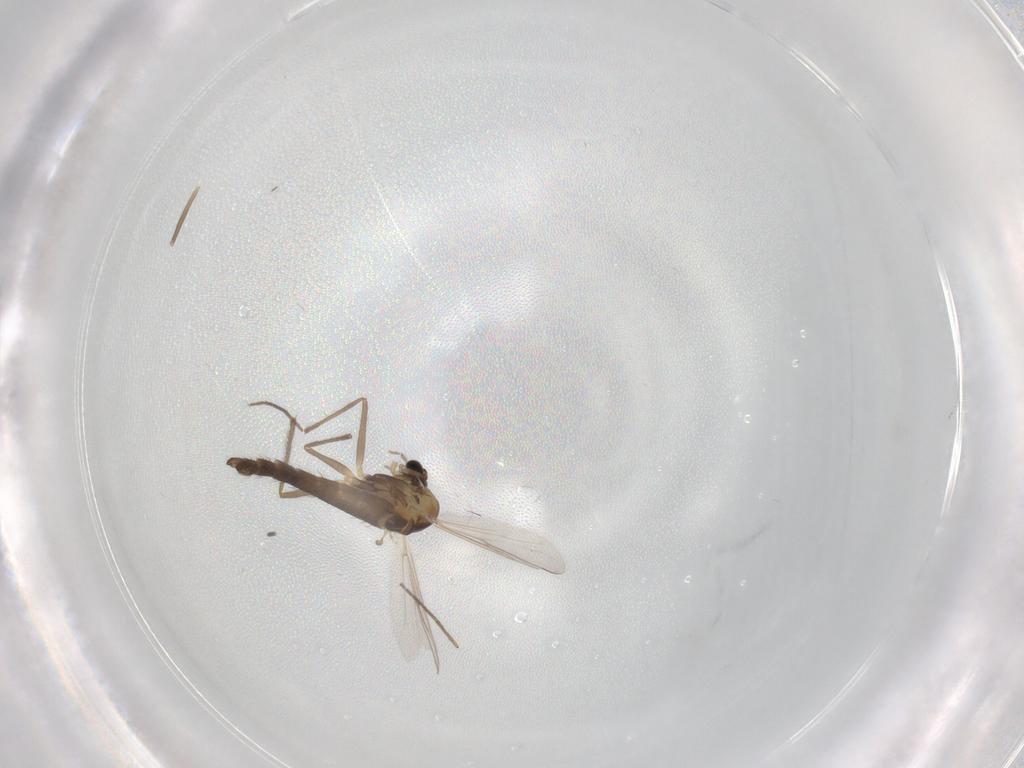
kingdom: Animalia
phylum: Arthropoda
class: Insecta
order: Diptera
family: Chironomidae
